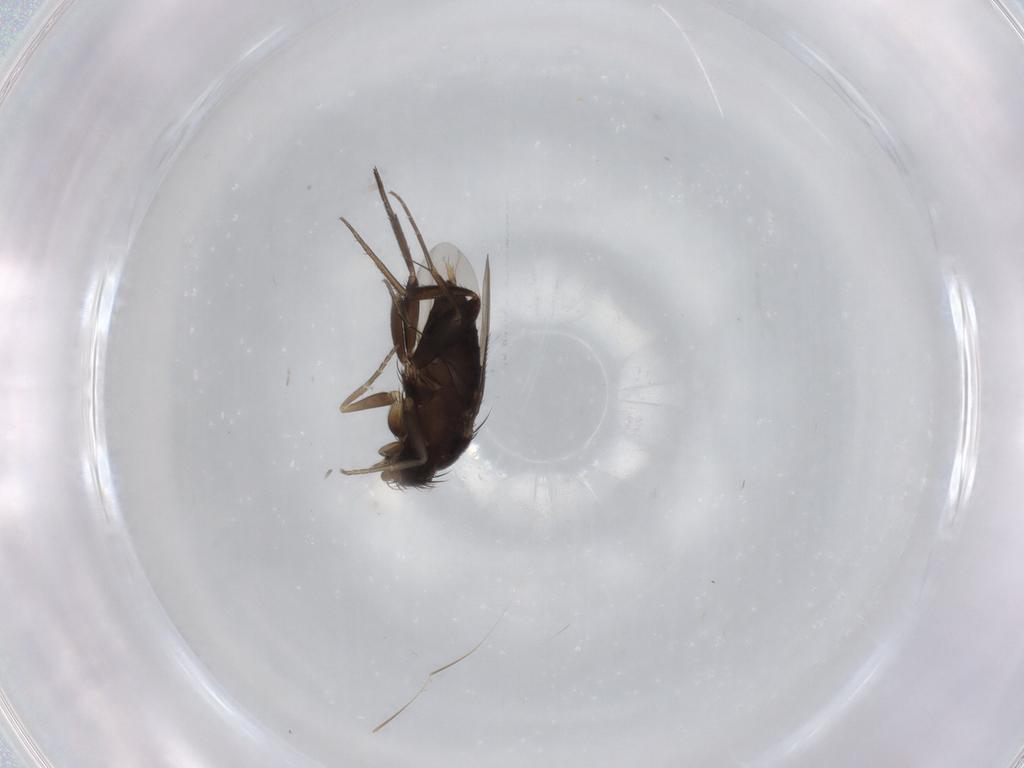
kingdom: Animalia
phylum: Arthropoda
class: Insecta
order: Diptera
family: Phoridae
